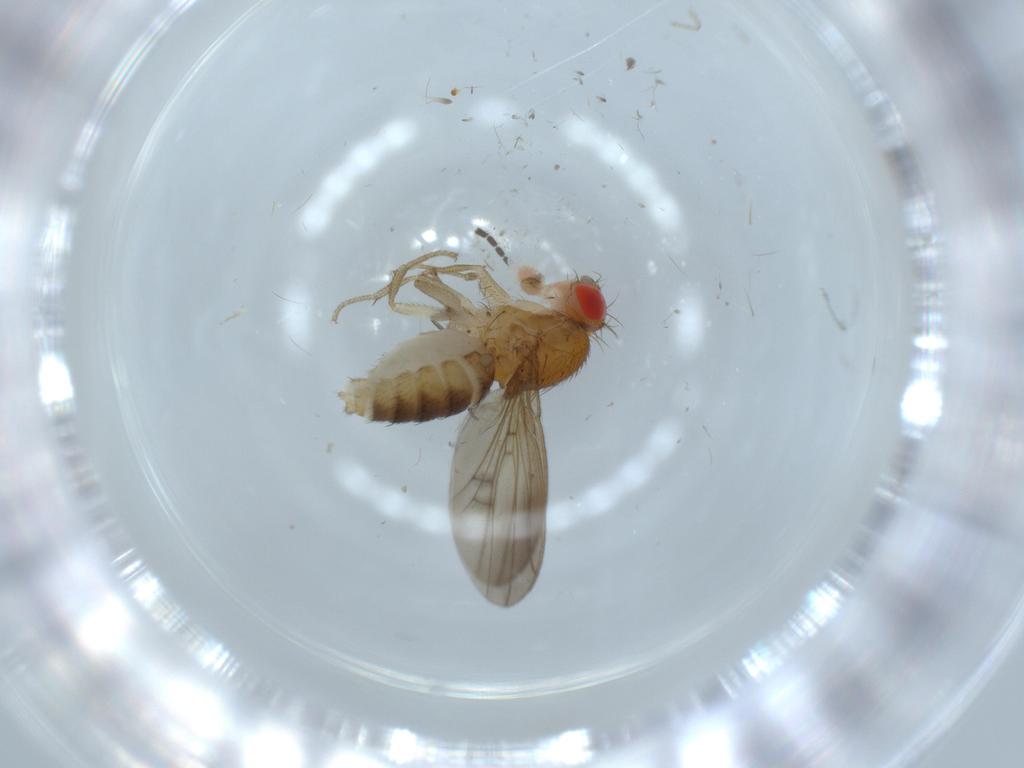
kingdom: Animalia
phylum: Arthropoda
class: Insecta
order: Diptera
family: Drosophilidae
